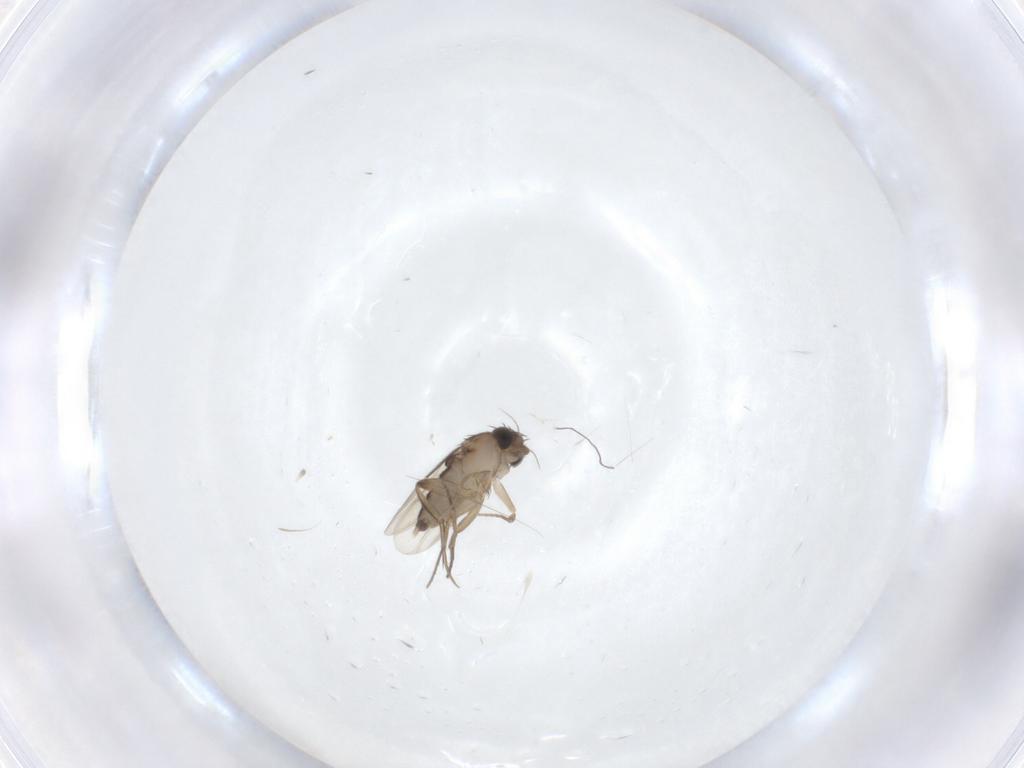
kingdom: Animalia
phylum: Arthropoda
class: Insecta
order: Diptera
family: Phoridae
